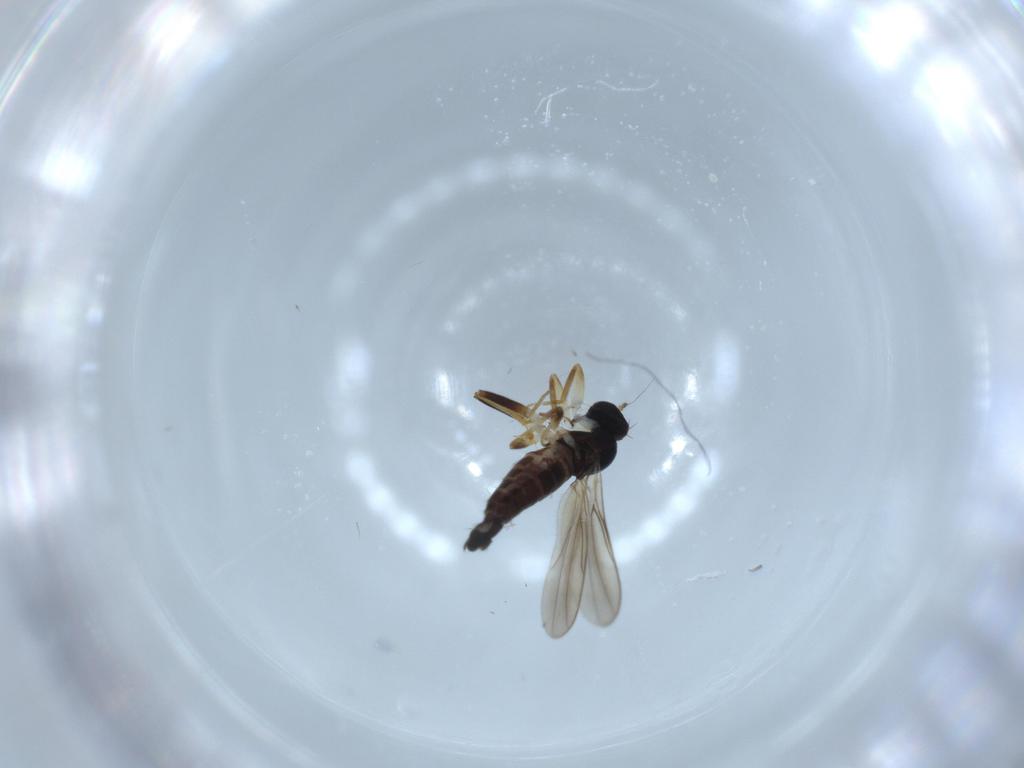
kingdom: Animalia
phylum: Arthropoda
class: Insecta
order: Diptera
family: Hybotidae
